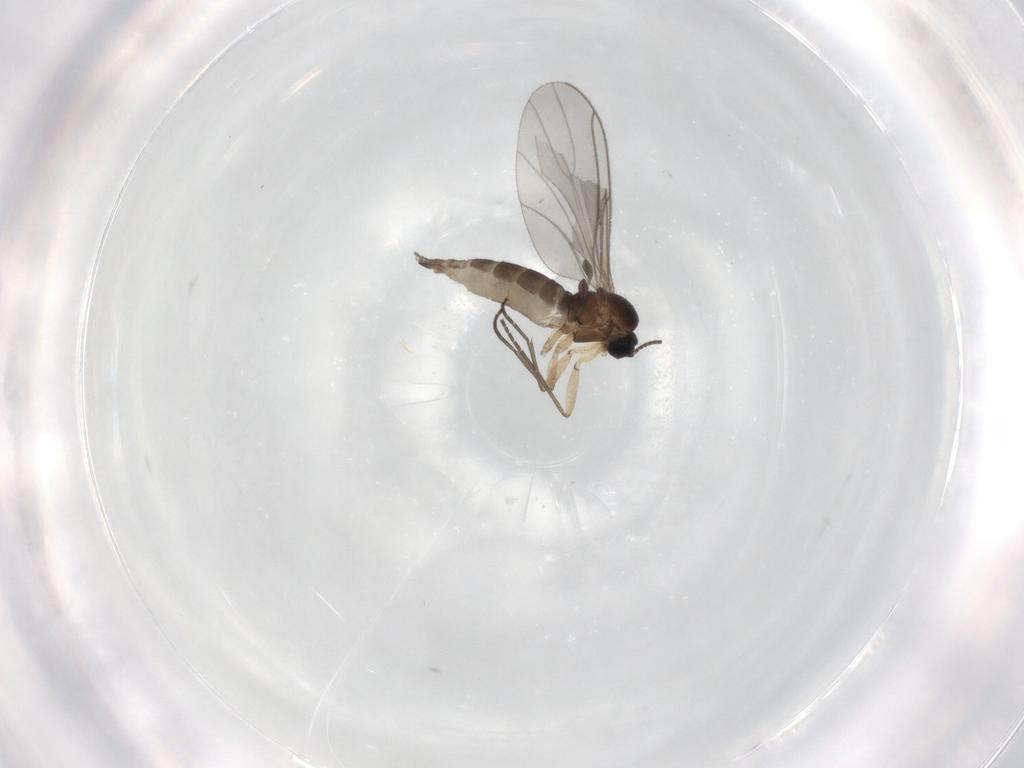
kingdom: Animalia
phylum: Arthropoda
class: Insecta
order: Diptera
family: Sciaridae
